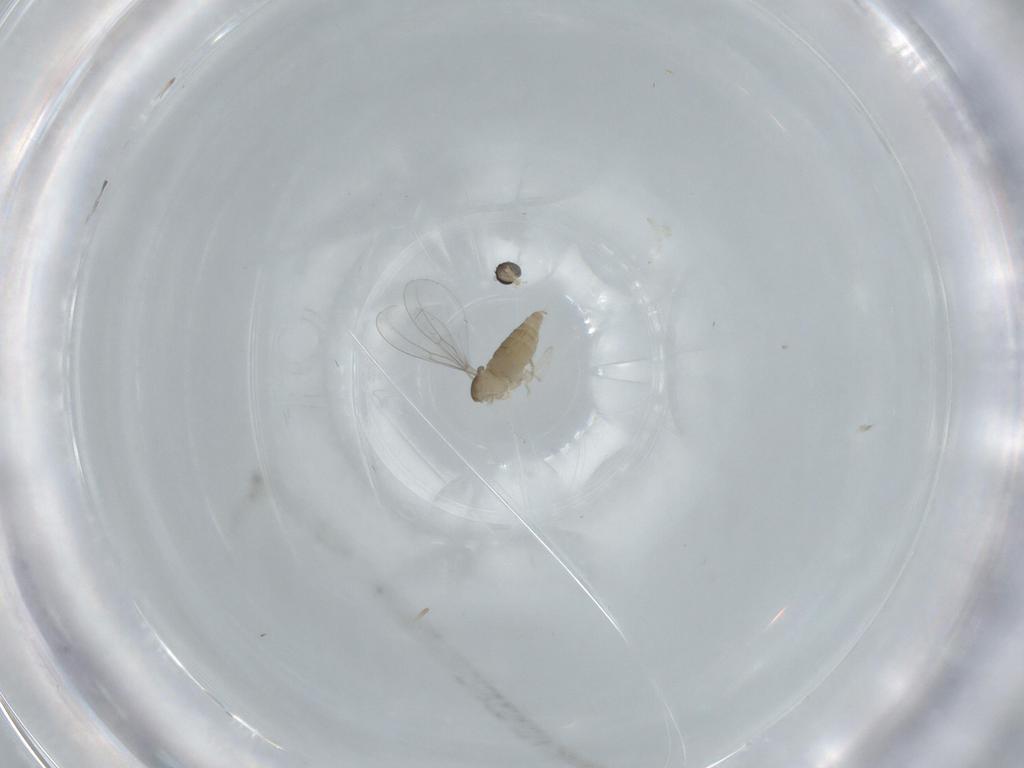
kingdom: Animalia
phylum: Arthropoda
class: Insecta
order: Diptera
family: Cecidomyiidae
